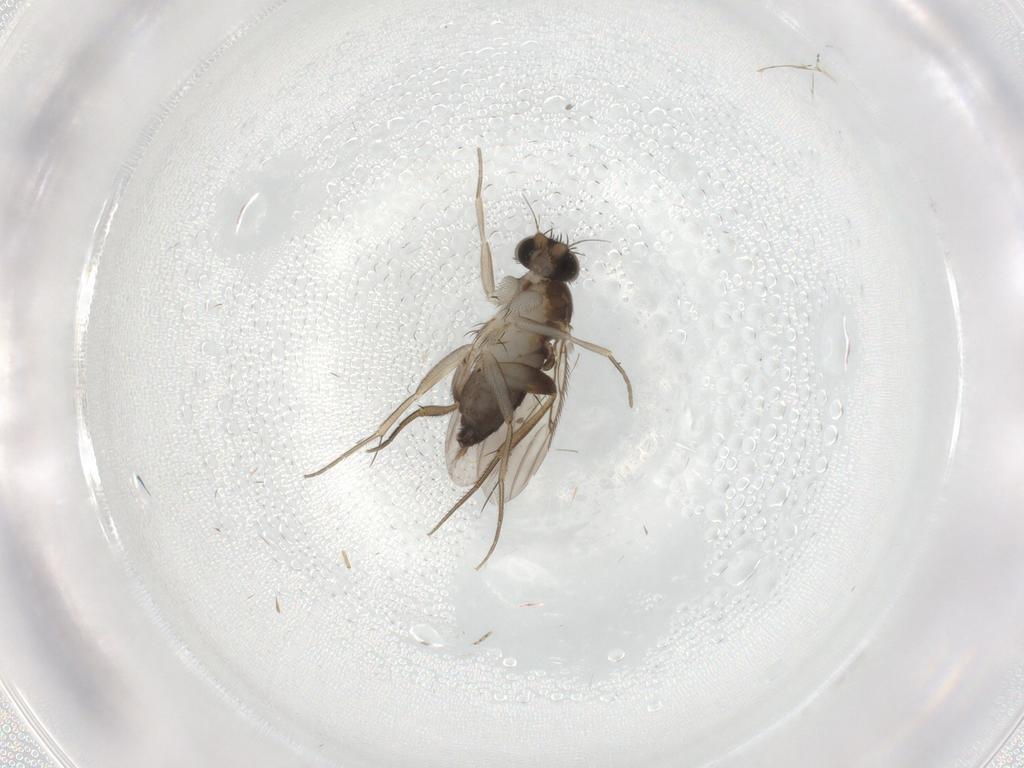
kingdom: Animalia
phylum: Arthropoda
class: Insecta
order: Diptera
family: Phoridae
